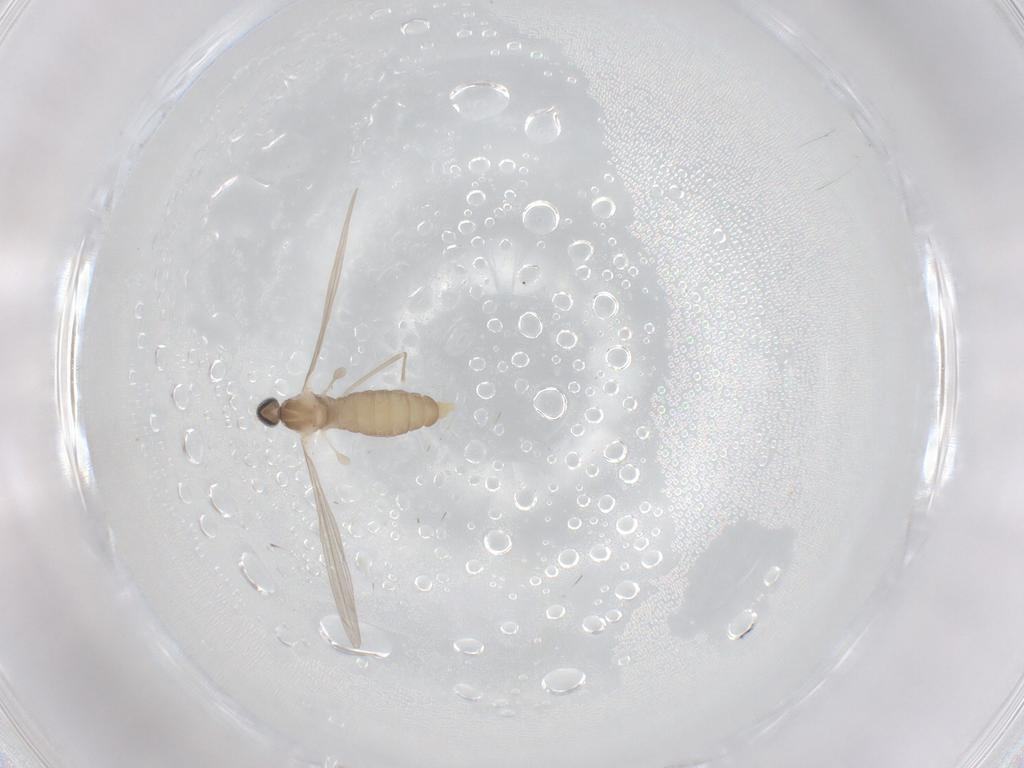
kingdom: Animalia
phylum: Arthropoda
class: Insecta
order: Diptera
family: Cecidomyiidae
